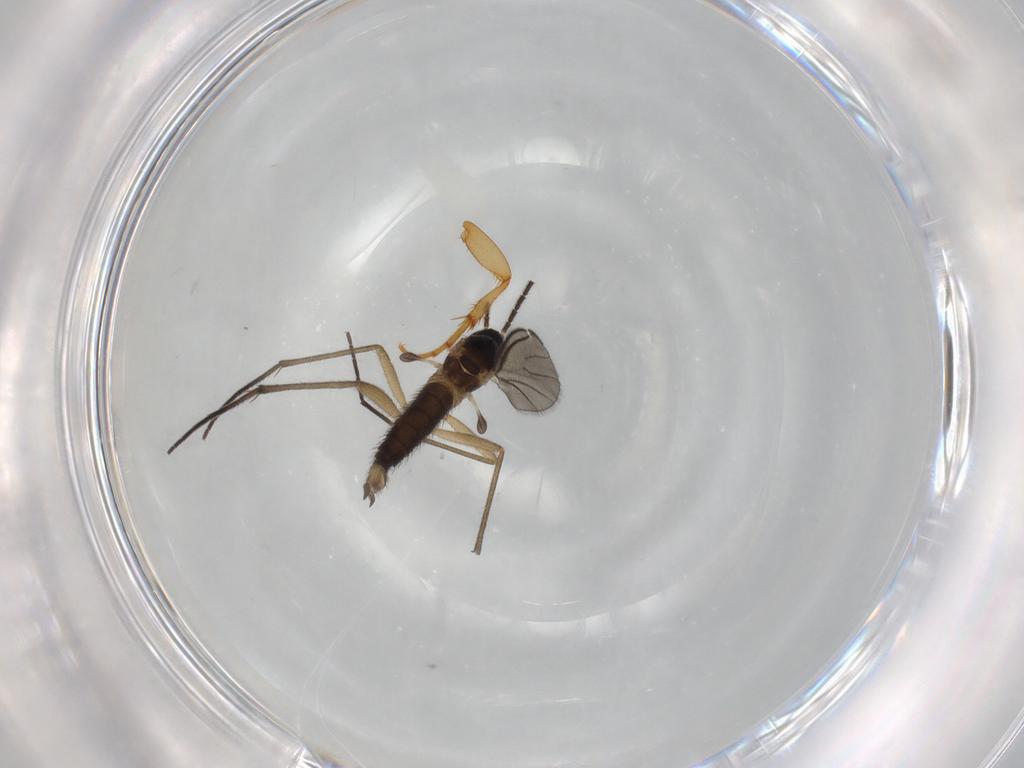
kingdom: Animalia
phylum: Arthropoda
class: Insecta
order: Diptera
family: Sciaridae
